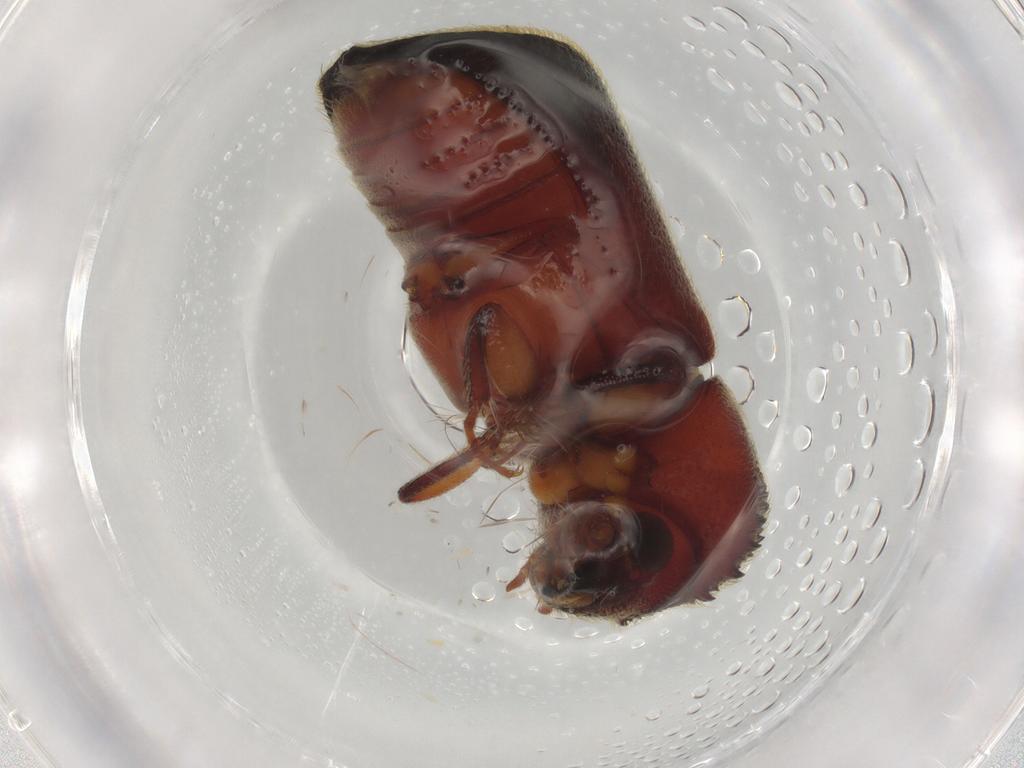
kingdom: Animalia
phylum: Arthropoda
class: Insecta
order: Coleoptera
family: Bostrichidae
